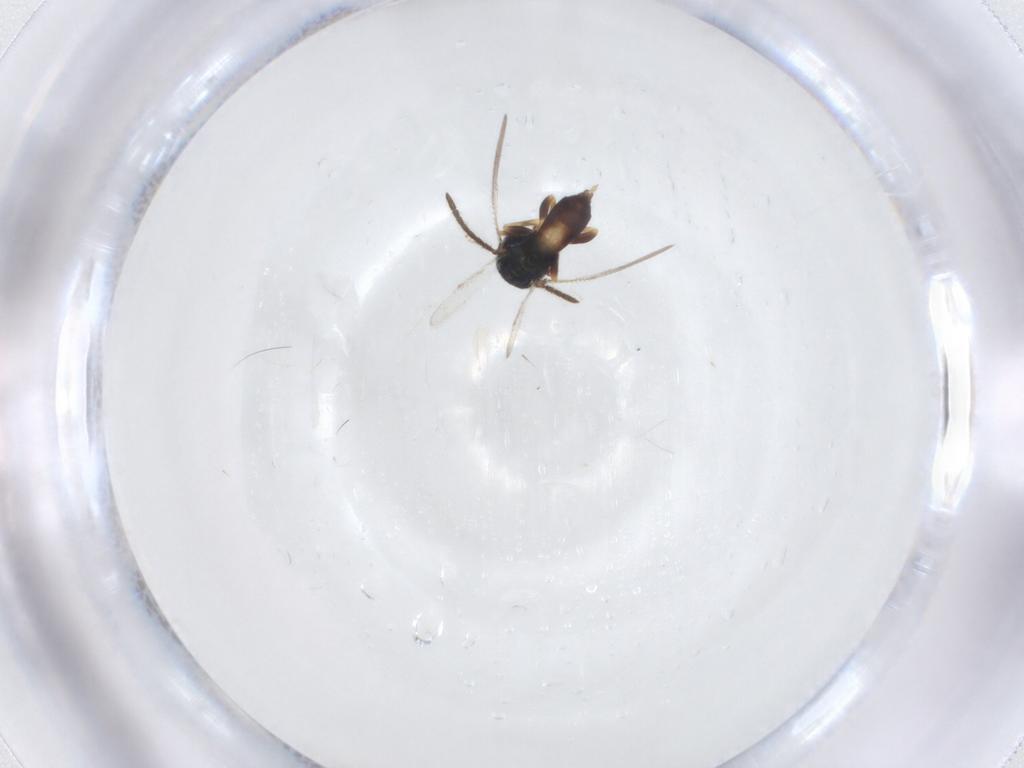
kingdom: Animalia
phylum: Arthropoda
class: Insecta
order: Hymenoptera
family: Pteromalidae
